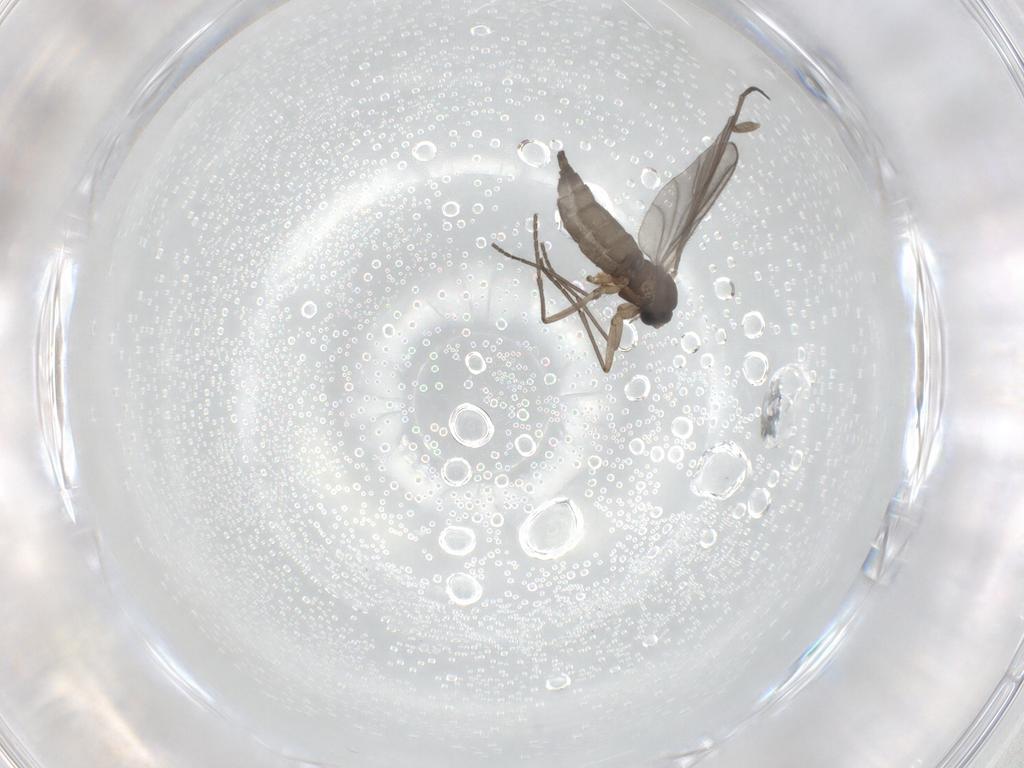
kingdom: Animalia
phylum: Arthropoda
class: Insecta
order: Diptera
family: Sciaridae
